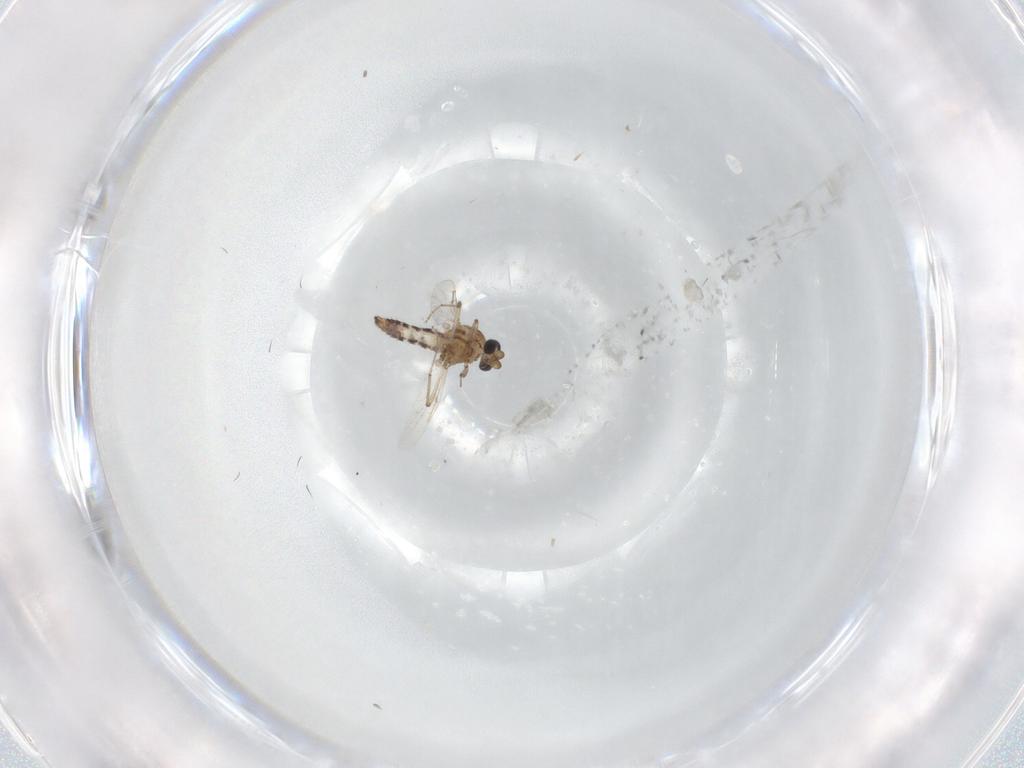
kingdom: Animalia
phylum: Arthropoda
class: Insecta
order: Diptera
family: Ceratopogonidae
